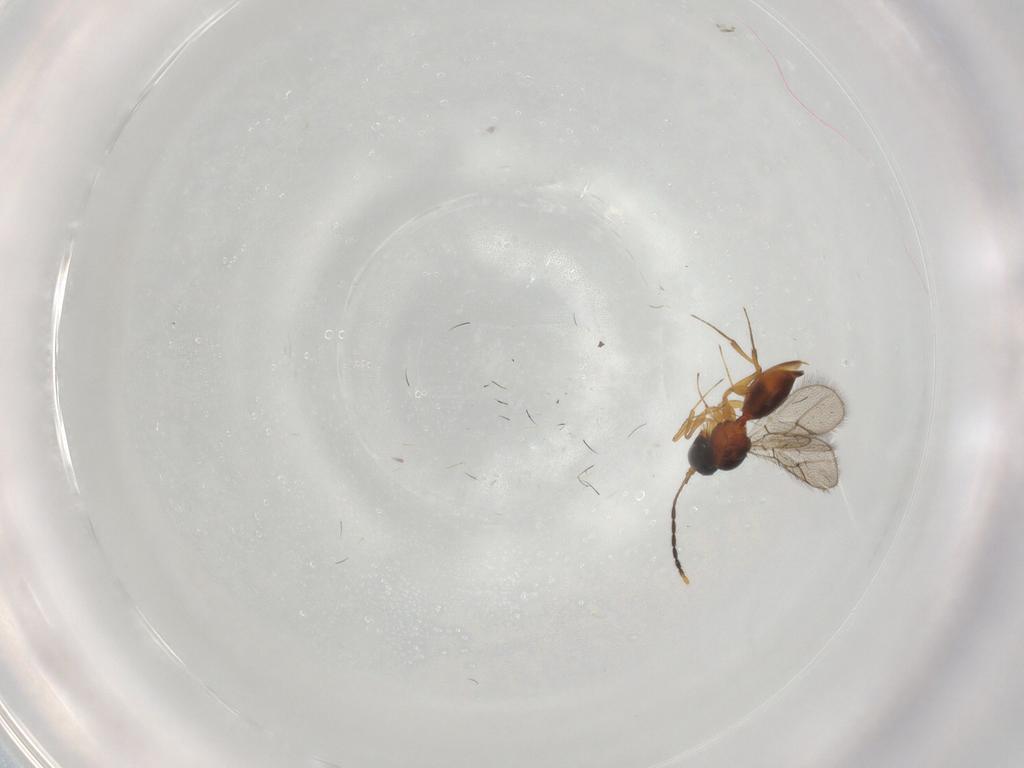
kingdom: Animalia
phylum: Arthropoda
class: Insecta
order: Hymenoptera
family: Figitidae
